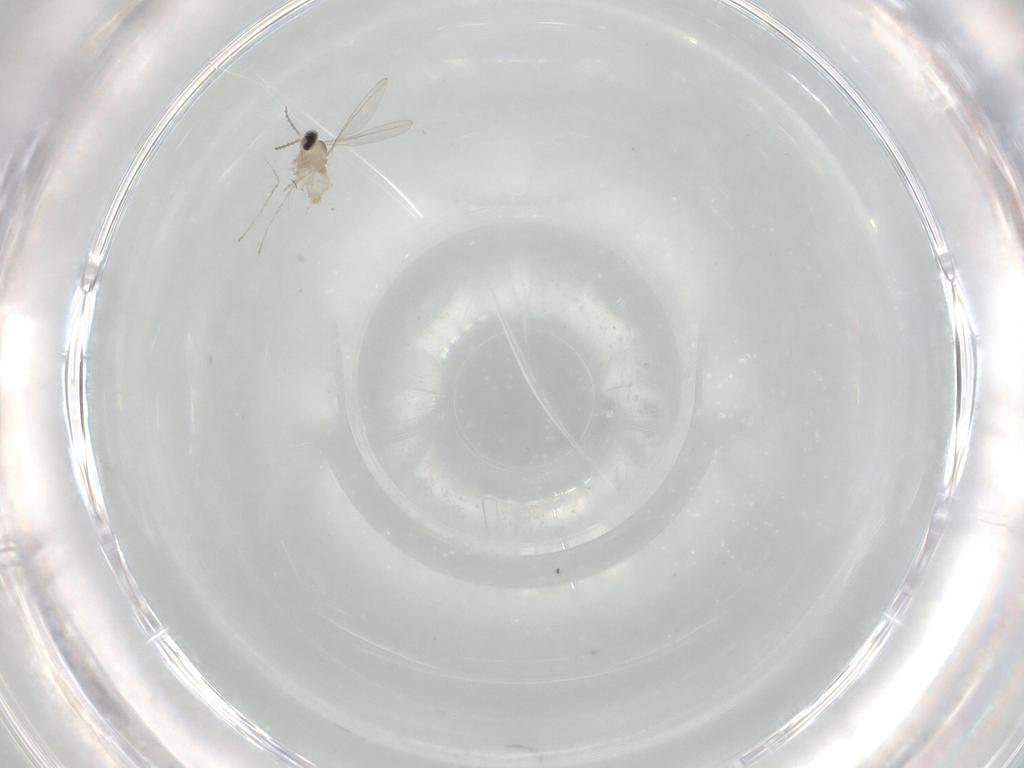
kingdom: Animalia
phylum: Arthropoda
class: Insecta
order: Diptera
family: Cecidomyiidae
